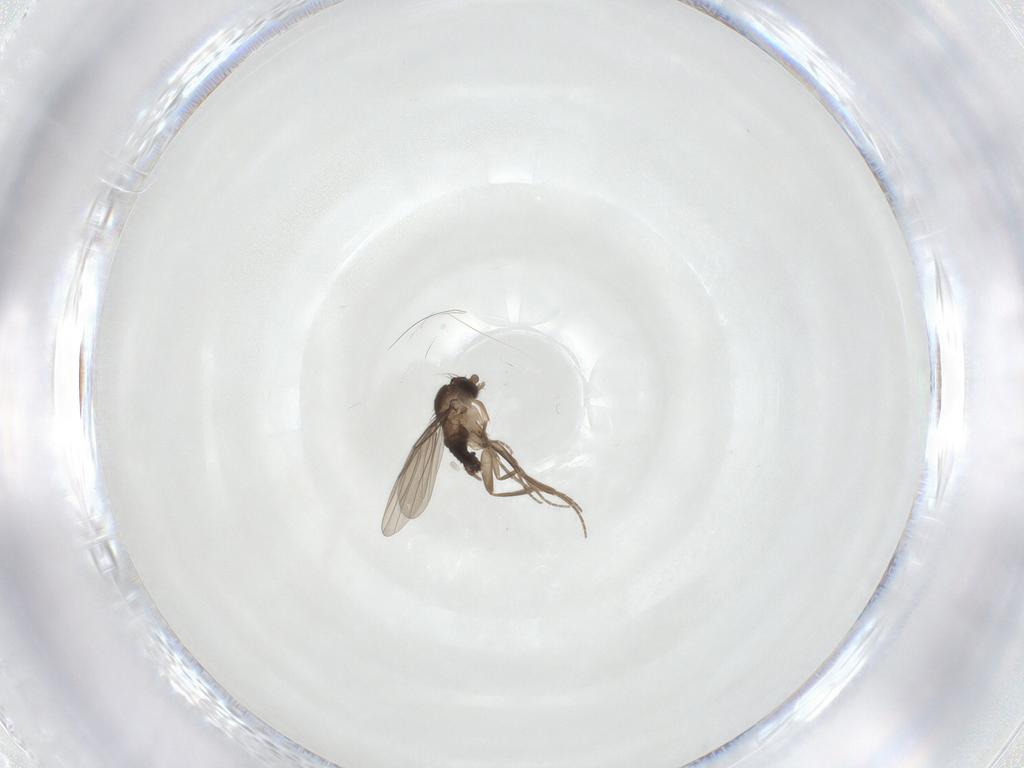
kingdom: Animalia
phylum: Arthropoda
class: Insecta
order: Diptera
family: Phoridae
